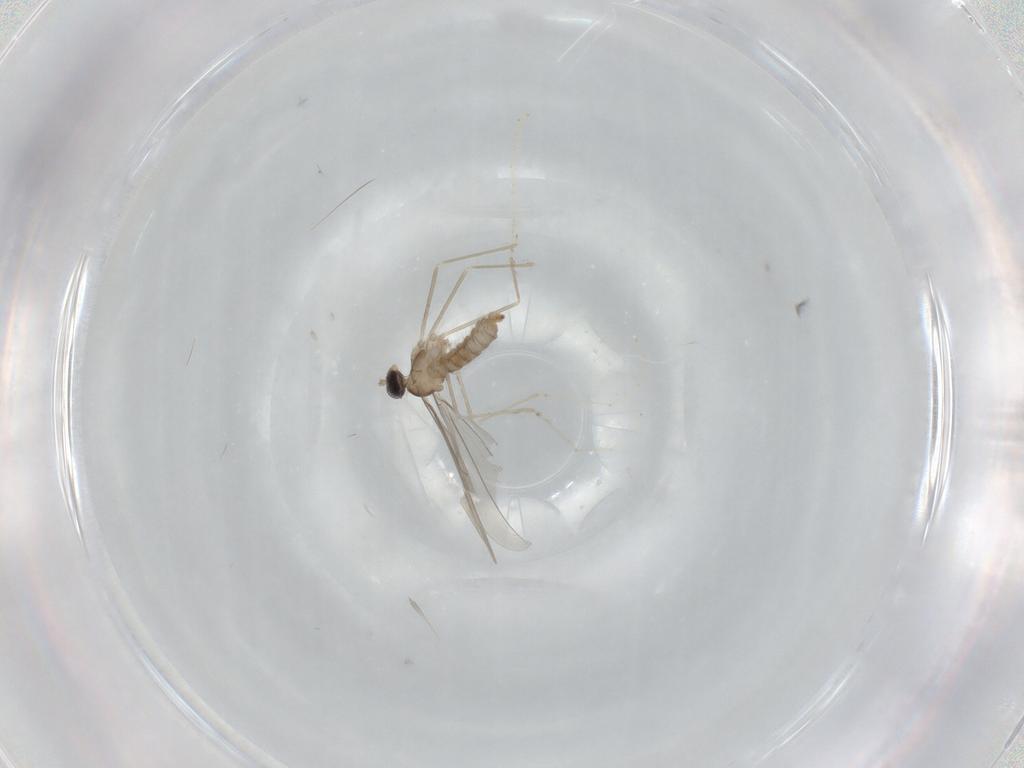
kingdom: Animalia
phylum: Arthropoda
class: Insecta
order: Diptera
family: Cecidomyiidae
